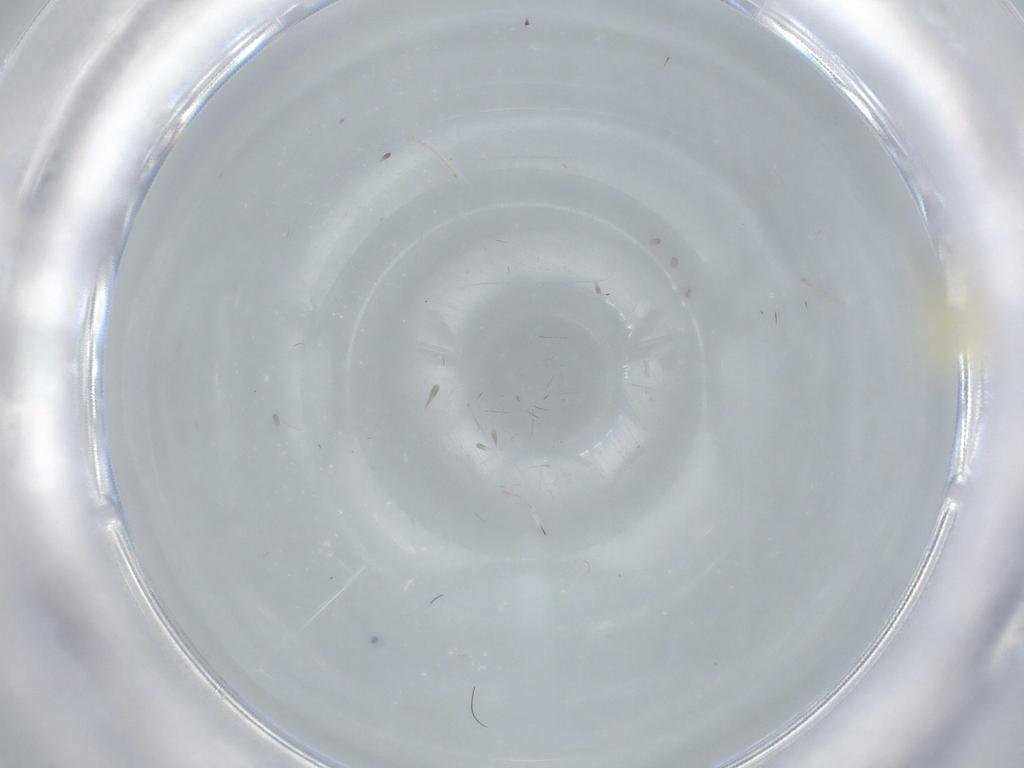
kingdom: Animalia
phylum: Arthropoda
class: Insecta
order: Coleoptera
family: Bostrichidae
